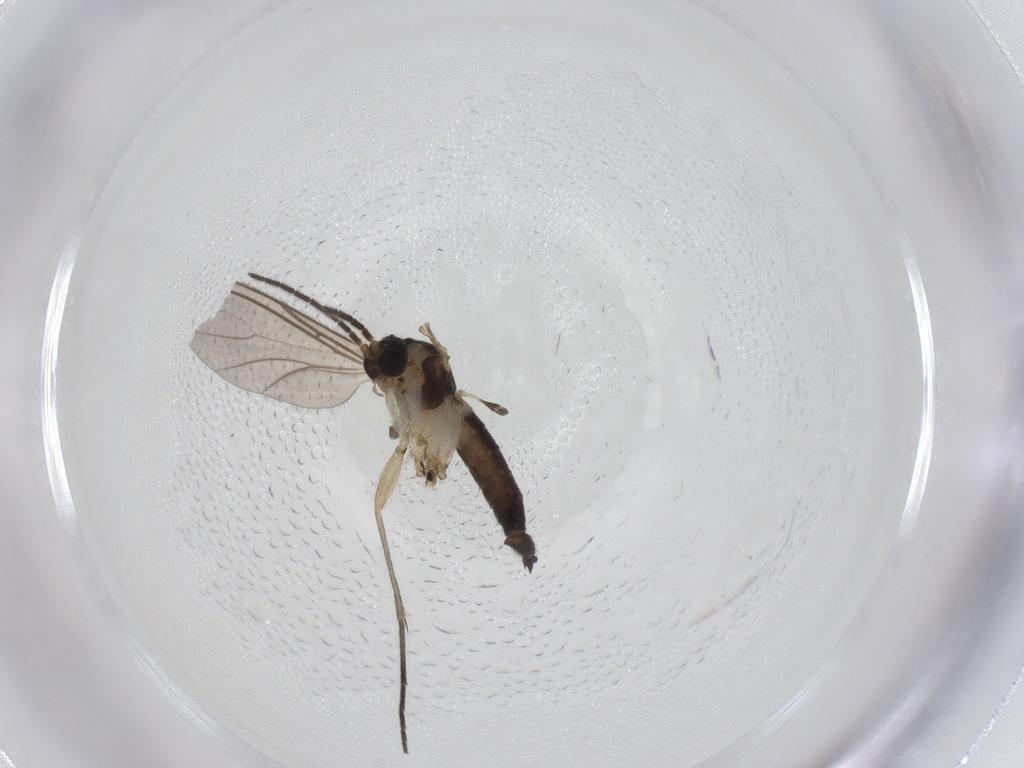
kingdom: Animalia
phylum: Arthropoda
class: Insecta
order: Diptera
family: Sciaridae
